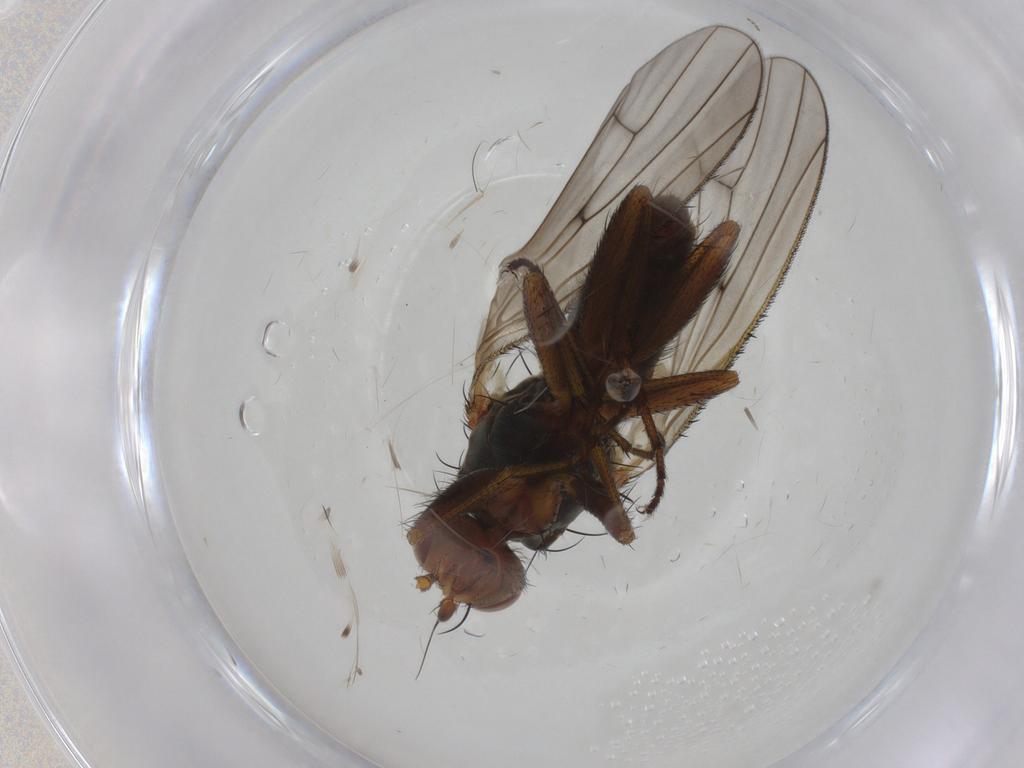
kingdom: Animalia
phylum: Arthropoda
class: Insecta
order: Diptera
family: Heleomyzidae
